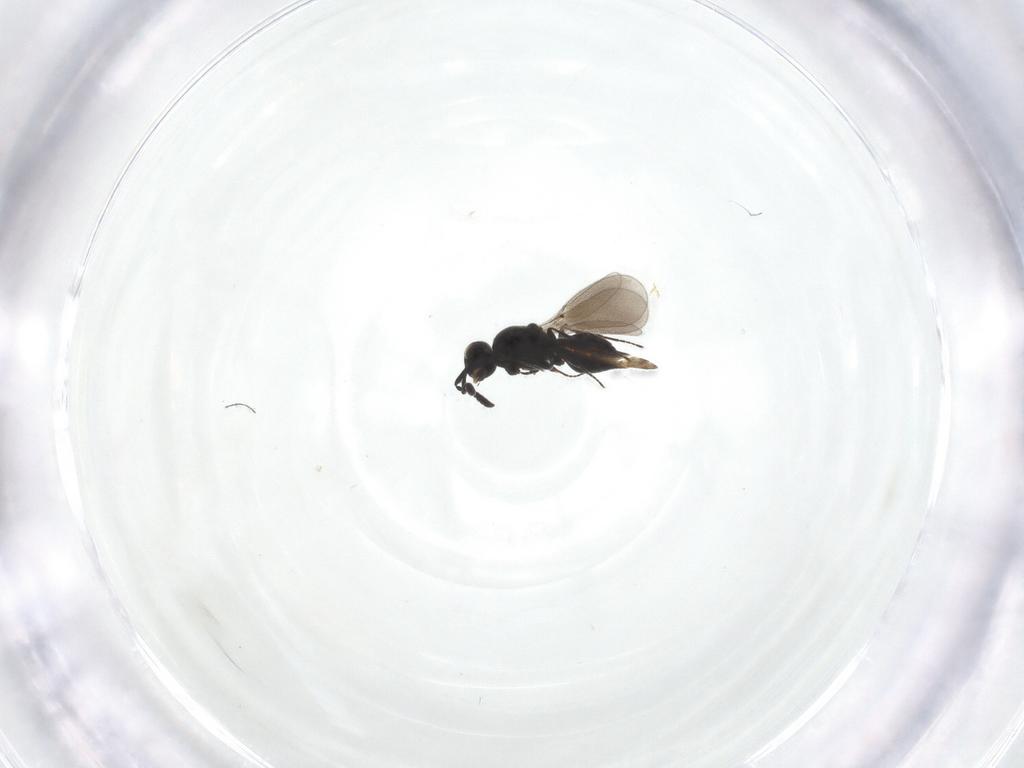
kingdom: Animalia
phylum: Arthropoda
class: Insecta
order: Hymenoptera
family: Platygastridae
